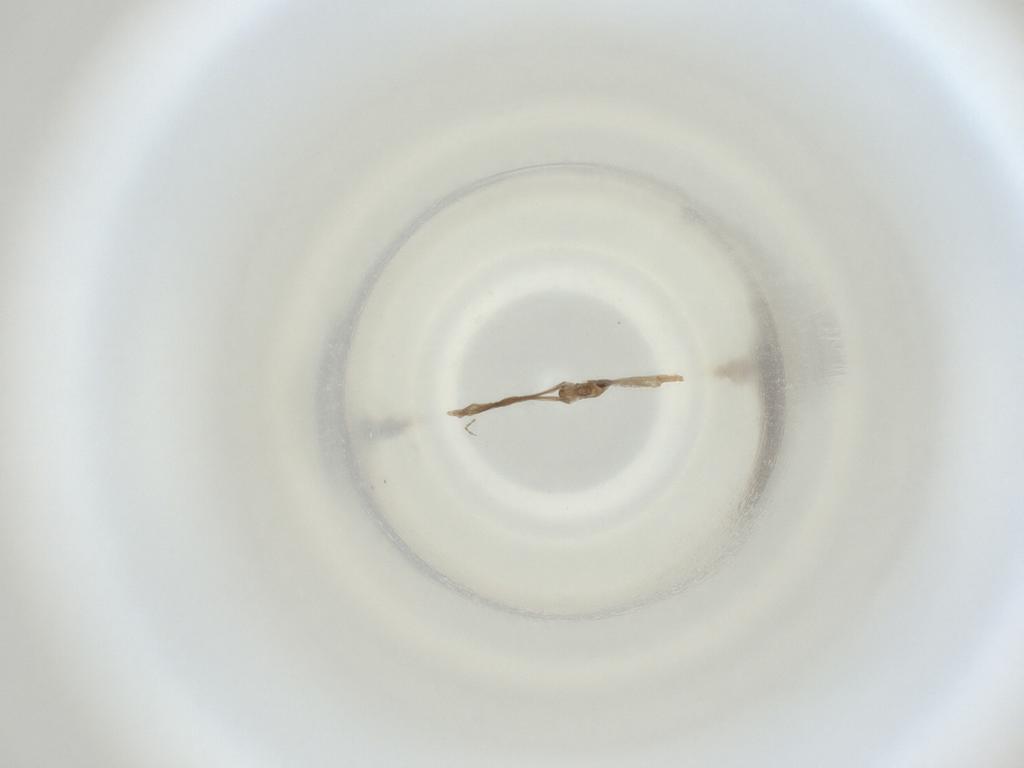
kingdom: Animalia
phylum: Arthropoda
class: Insecta
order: Diptera
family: Cecidomyiidae
